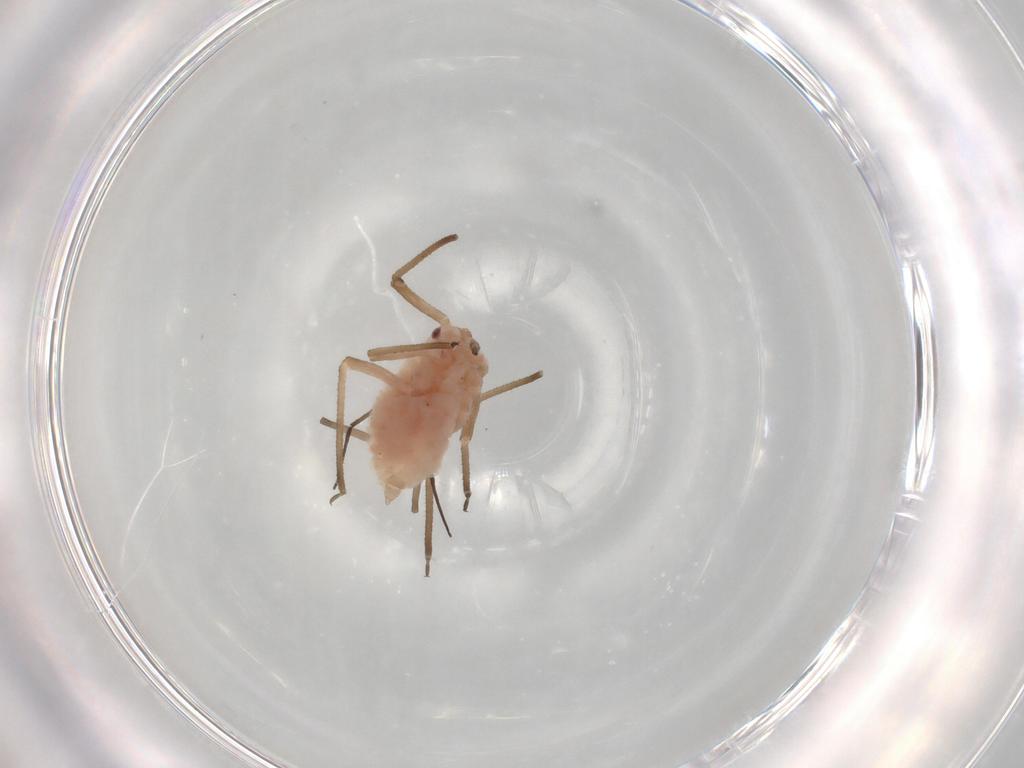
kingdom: Animalia
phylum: Arthropoda
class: Insecta
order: Hemiptera
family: Aphididae
